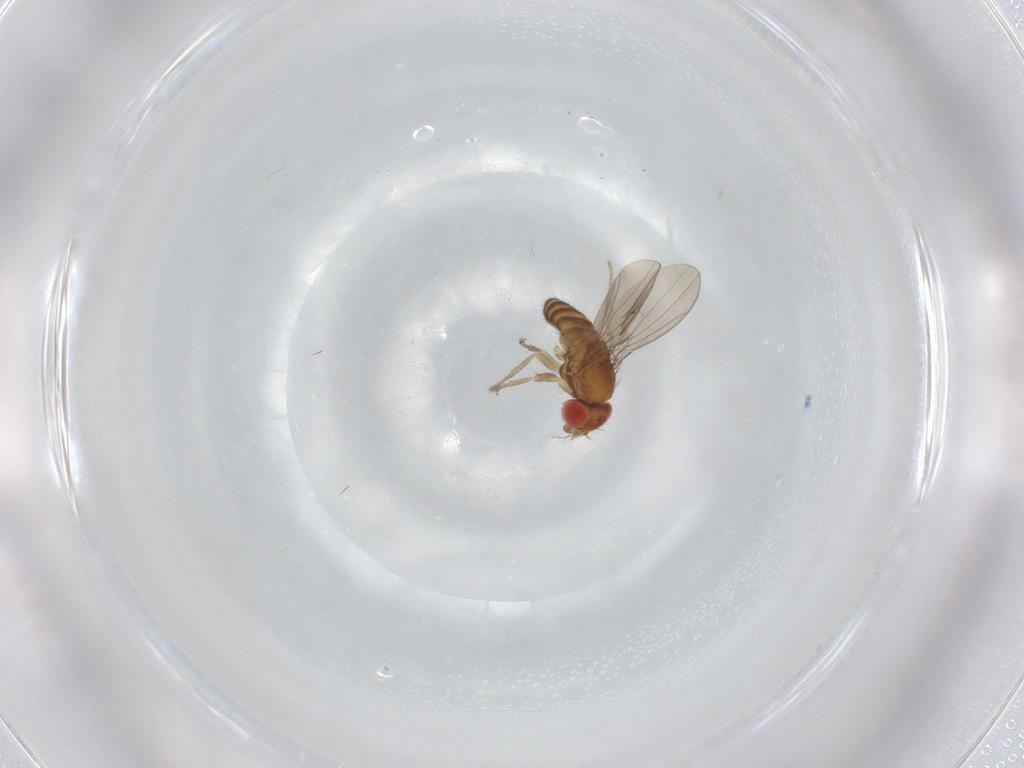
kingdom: Animalia
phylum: Arthropoda
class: Insecta
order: Diptera
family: Ephydridae
